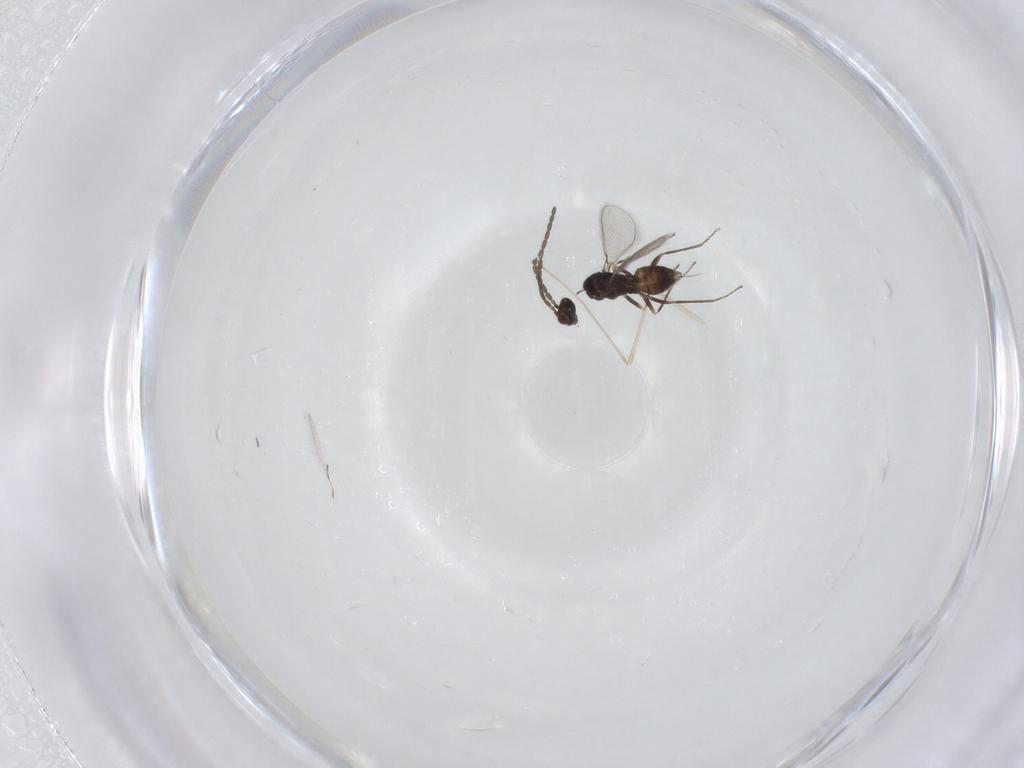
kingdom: Animalia
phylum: Arthropoda
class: Insecta
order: Hymenoptera
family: Mymaridae
